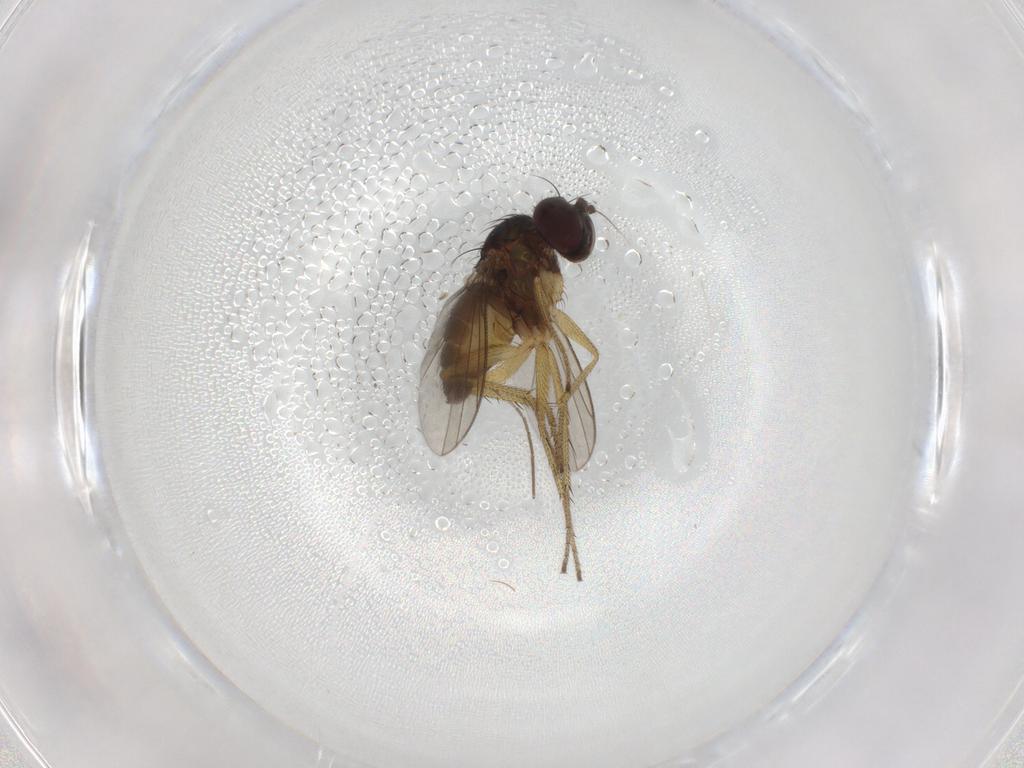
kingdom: Animalia
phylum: Arthropoda
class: Insecta
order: Diptera
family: Dolichopodidae
